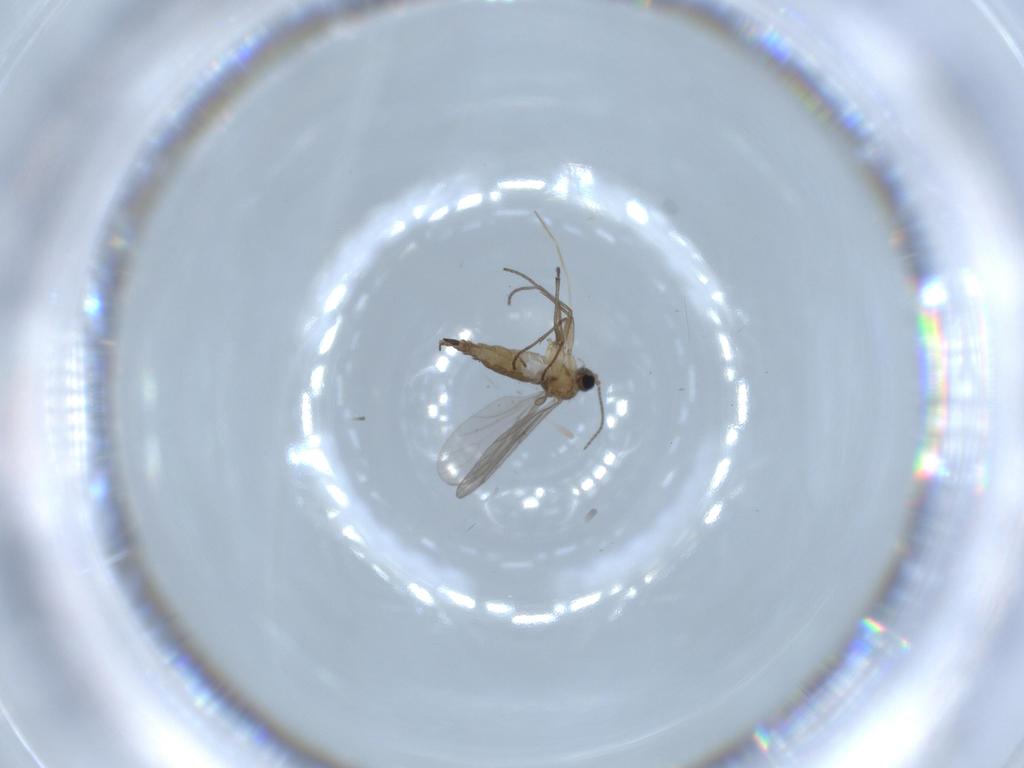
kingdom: Animalia
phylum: Arthropoda
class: Insecta
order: Diptera
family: Sciaridae
